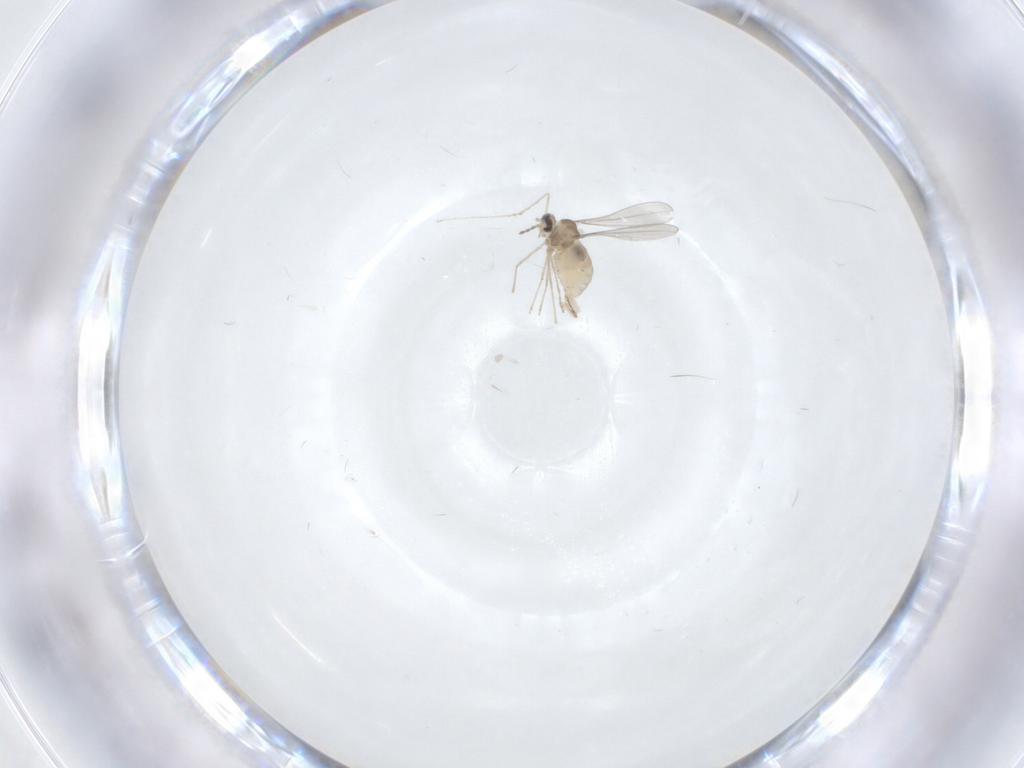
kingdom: Animalia
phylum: Arthropoda
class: Insecta
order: Diptera
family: Cecidomyiidae
